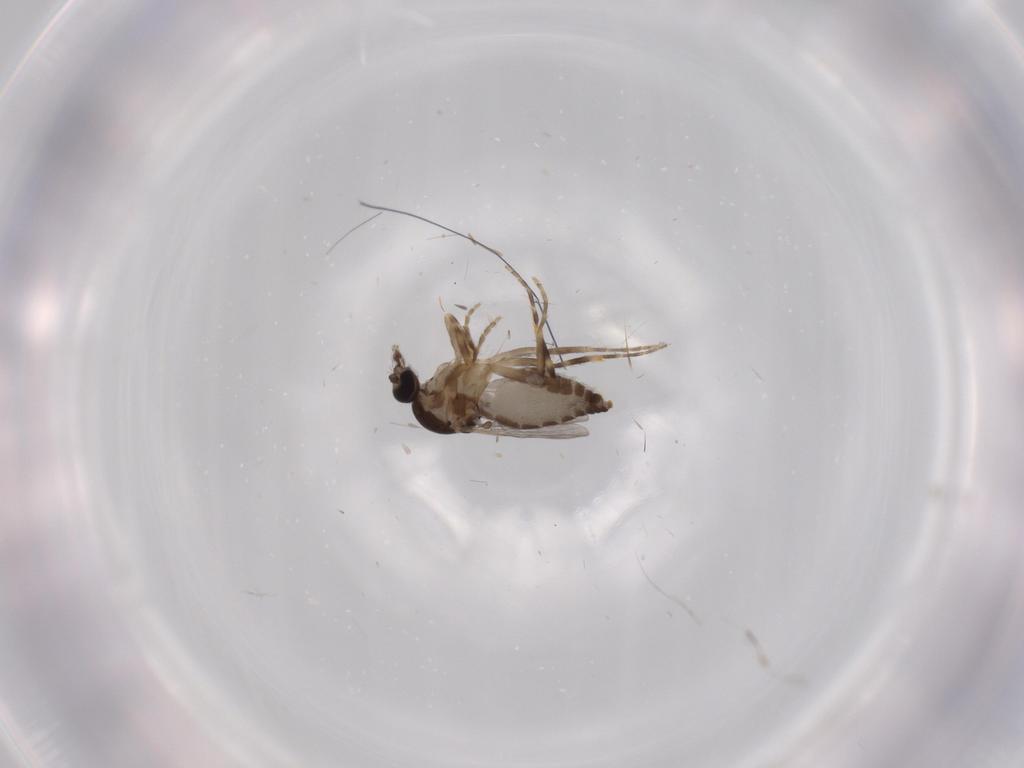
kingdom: Animalia
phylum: Arthropoda
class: Insecta
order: Diptera
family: Ceratopogonidae
